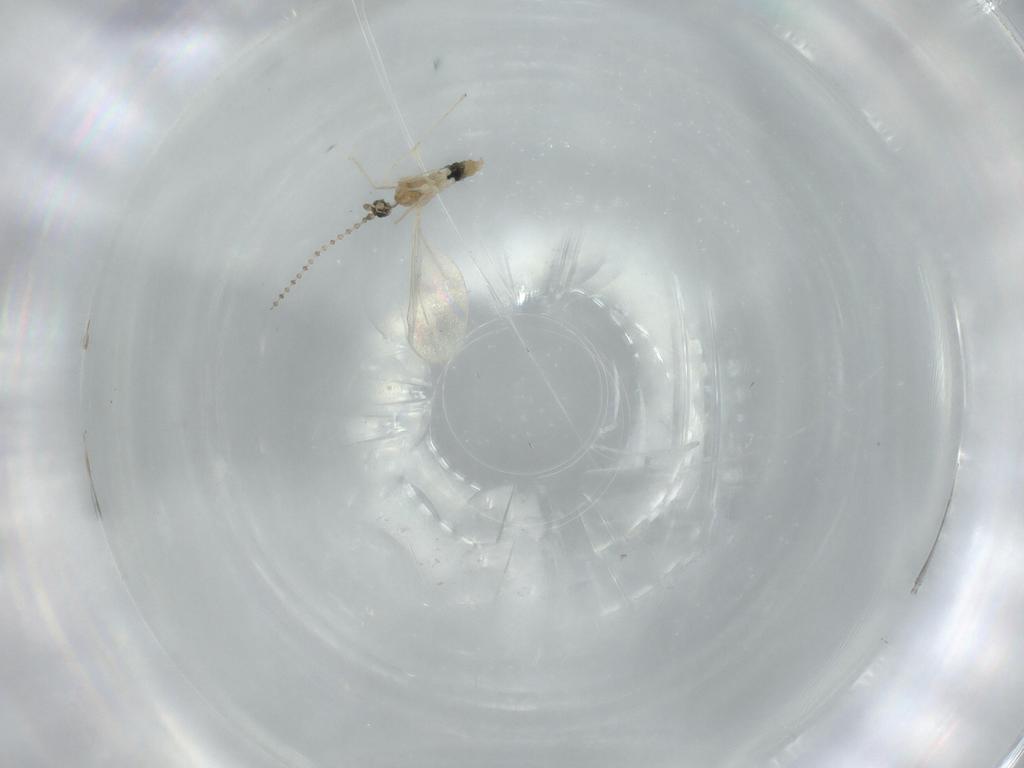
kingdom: Animalia
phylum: Arthropoda
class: Insecta
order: Diptera
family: Cecidomyiidae
